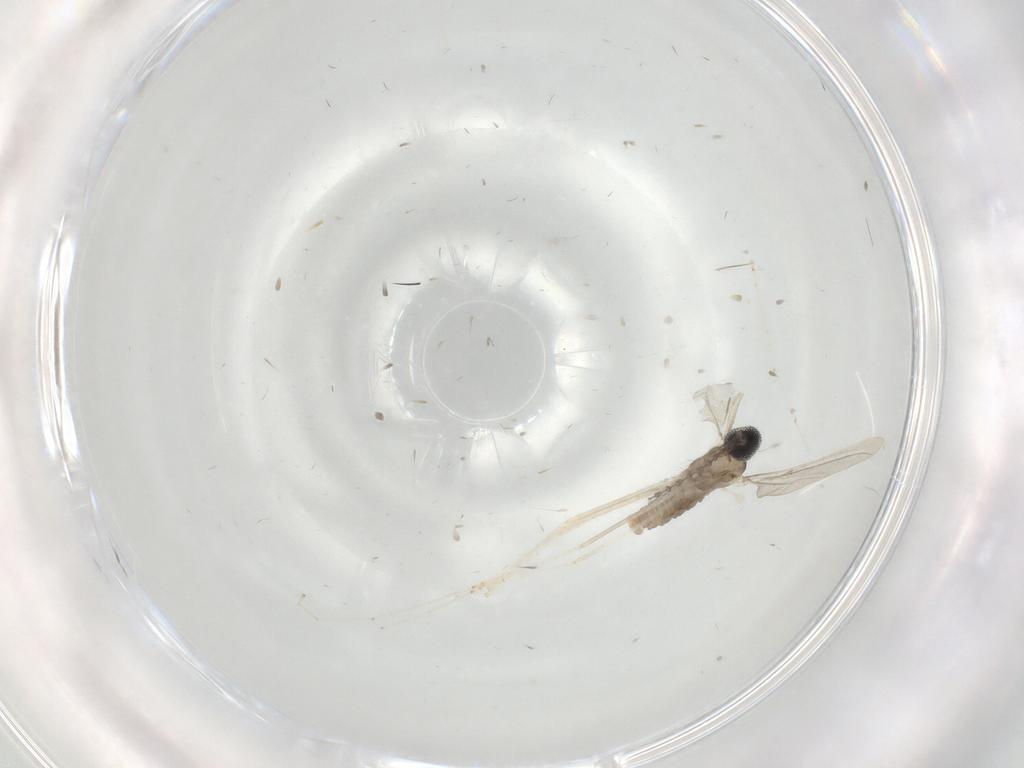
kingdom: Animalia
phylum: Arthropoda
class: Insecta
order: Diptera
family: Cecidomyiidae
